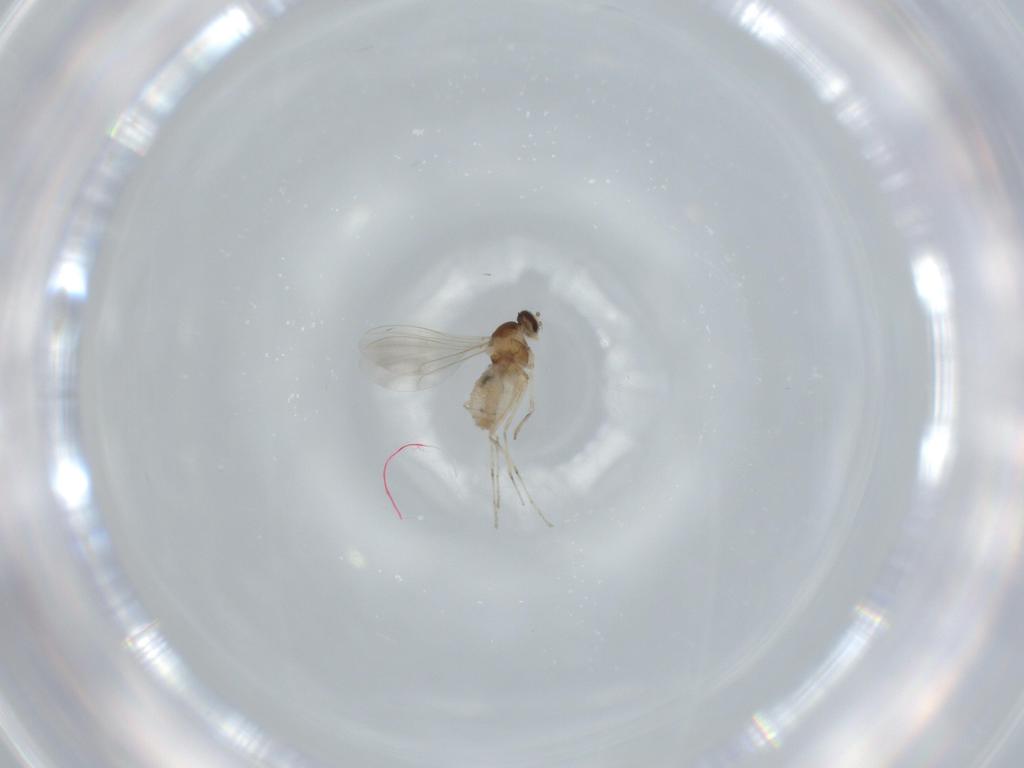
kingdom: Animalia
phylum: Arthropoda
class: Insecta
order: Diptera
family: Cecidomyiidae
